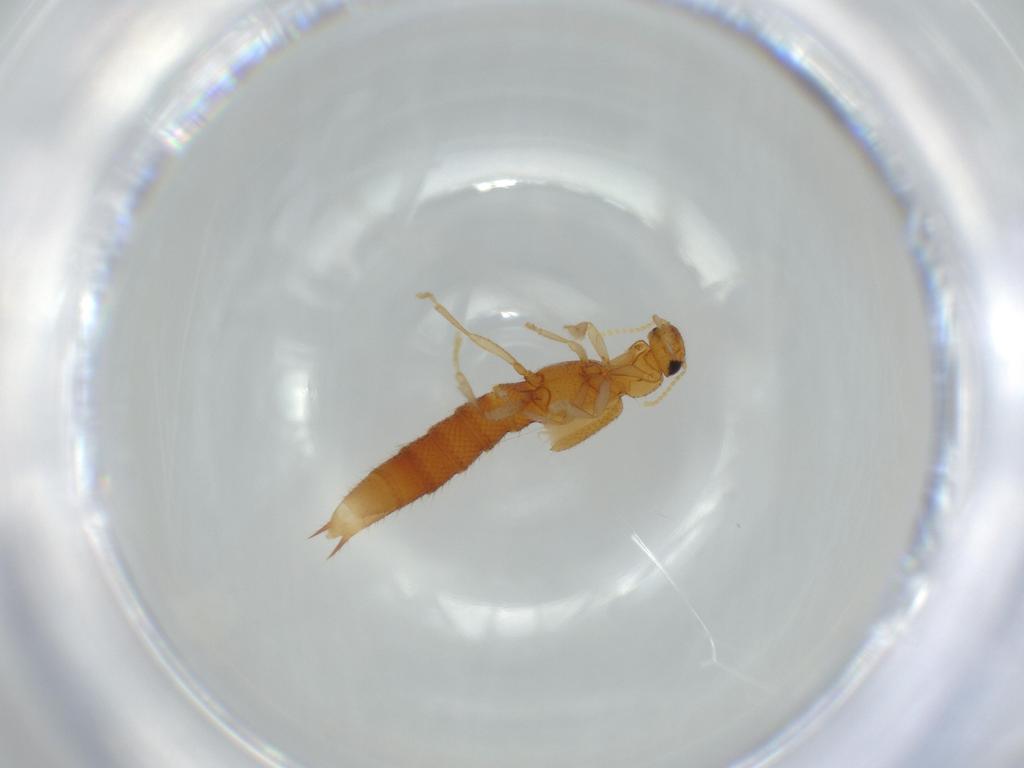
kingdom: Animalia
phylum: Arthropoda
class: Insecta
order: Coleoptera
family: Staphylinidae
